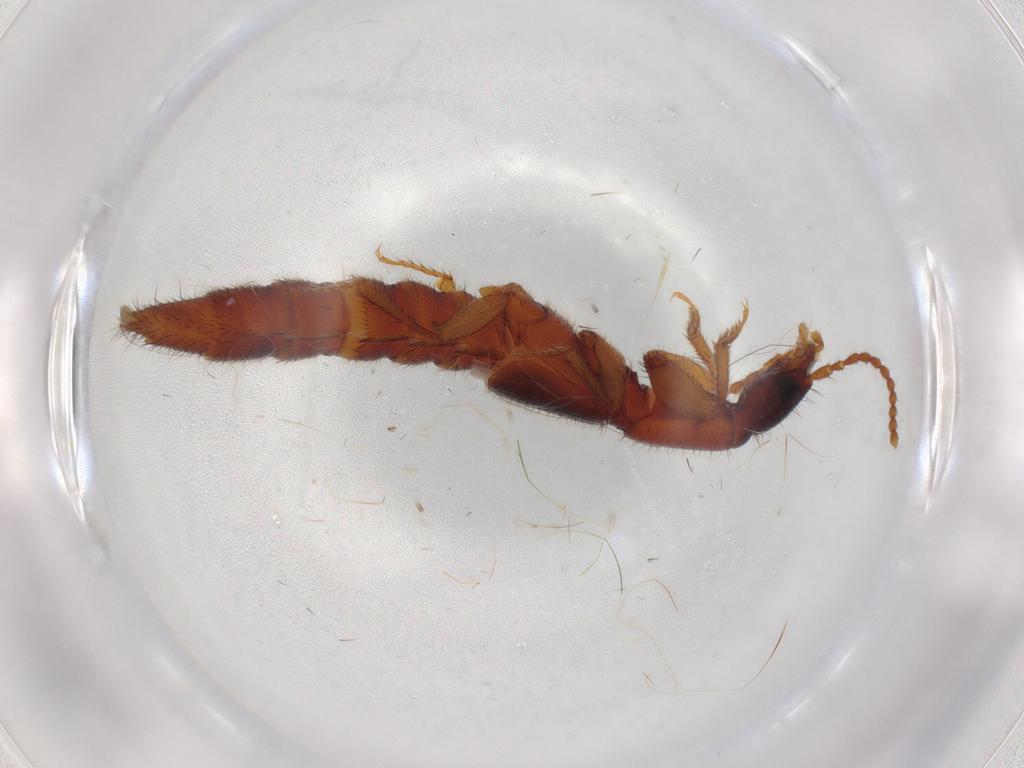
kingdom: Animalia
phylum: Arthropoda
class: Insecta
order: Coleoptera
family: Staphylinidae
